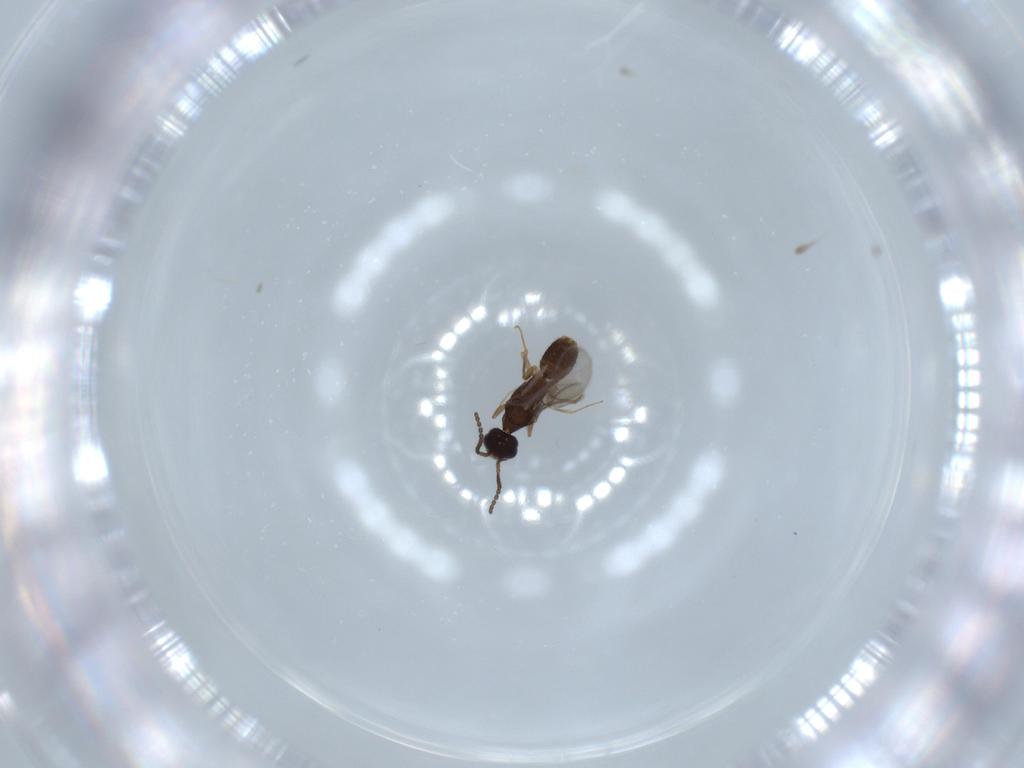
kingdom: Animalia
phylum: Arthropoda
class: Insecta
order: Hymenoptera
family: Bethylidae
